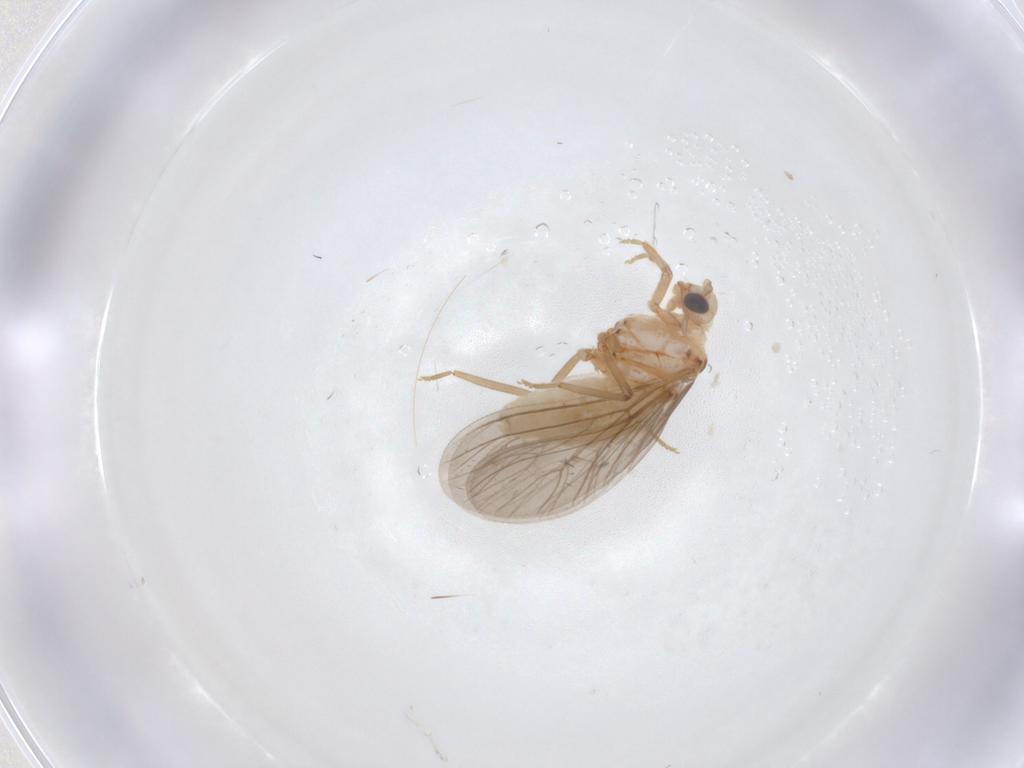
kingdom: Animalia
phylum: Arthropoda
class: Insecta
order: Neuroptera
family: Coniopterygidae
